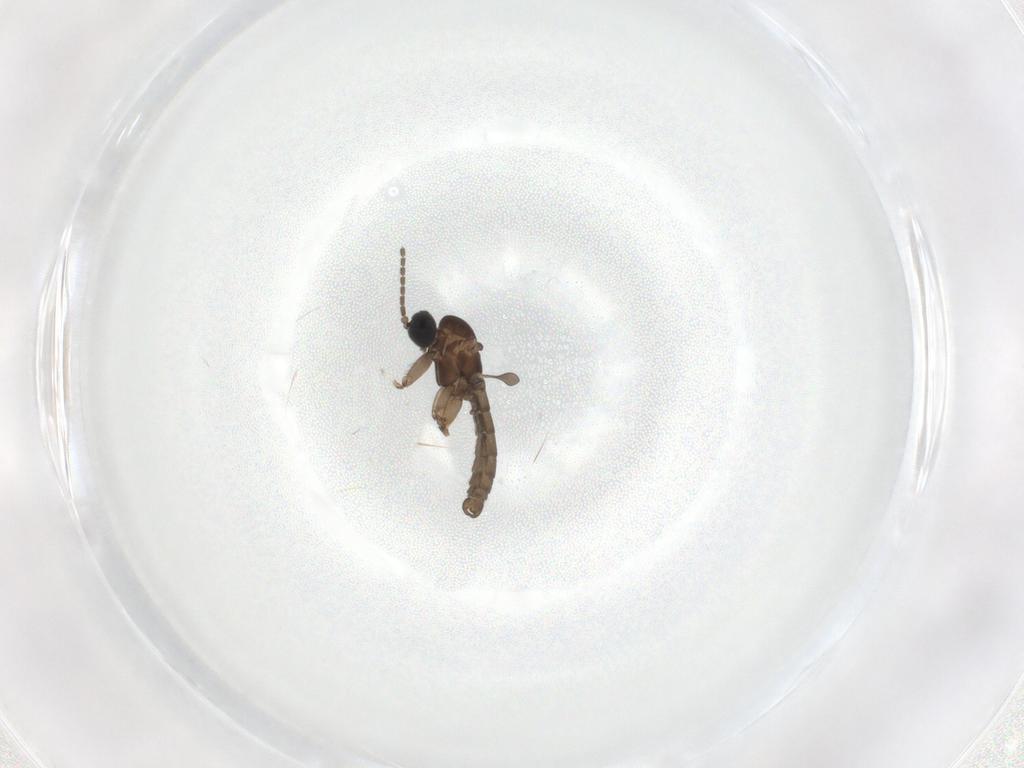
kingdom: Animalia
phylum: Arthropoda
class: Insecta
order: Diptera
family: Sciaridae
